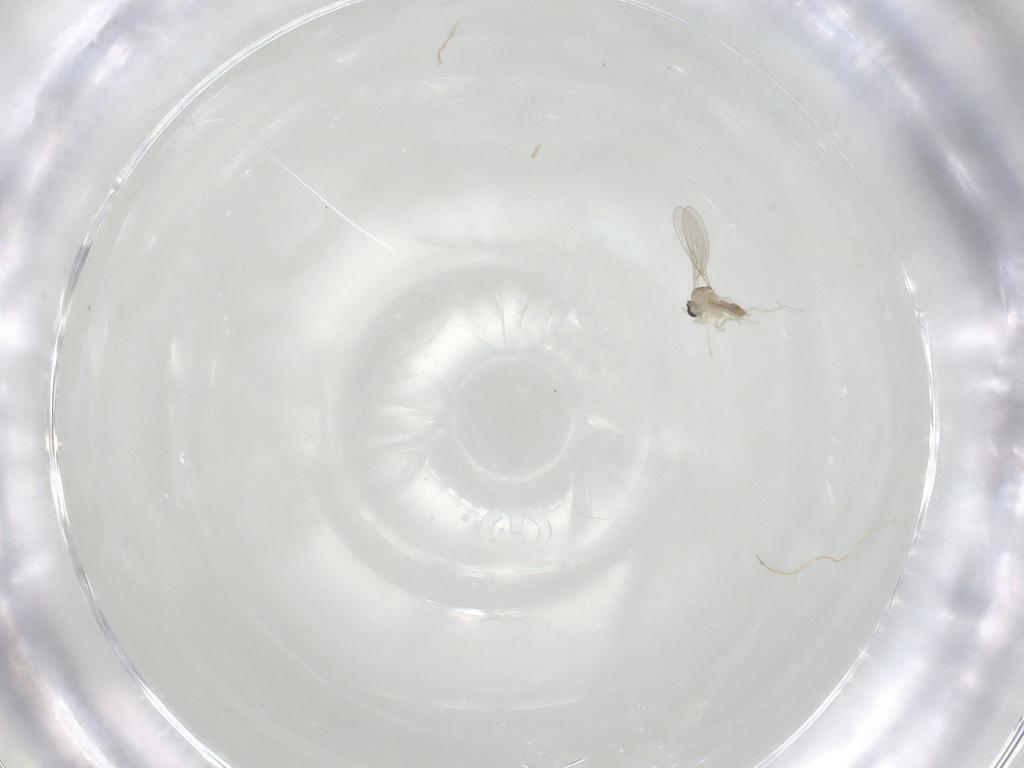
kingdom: Animalia
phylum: Arthropoda
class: Insecta
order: Diptera
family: Cecidomyiidae
